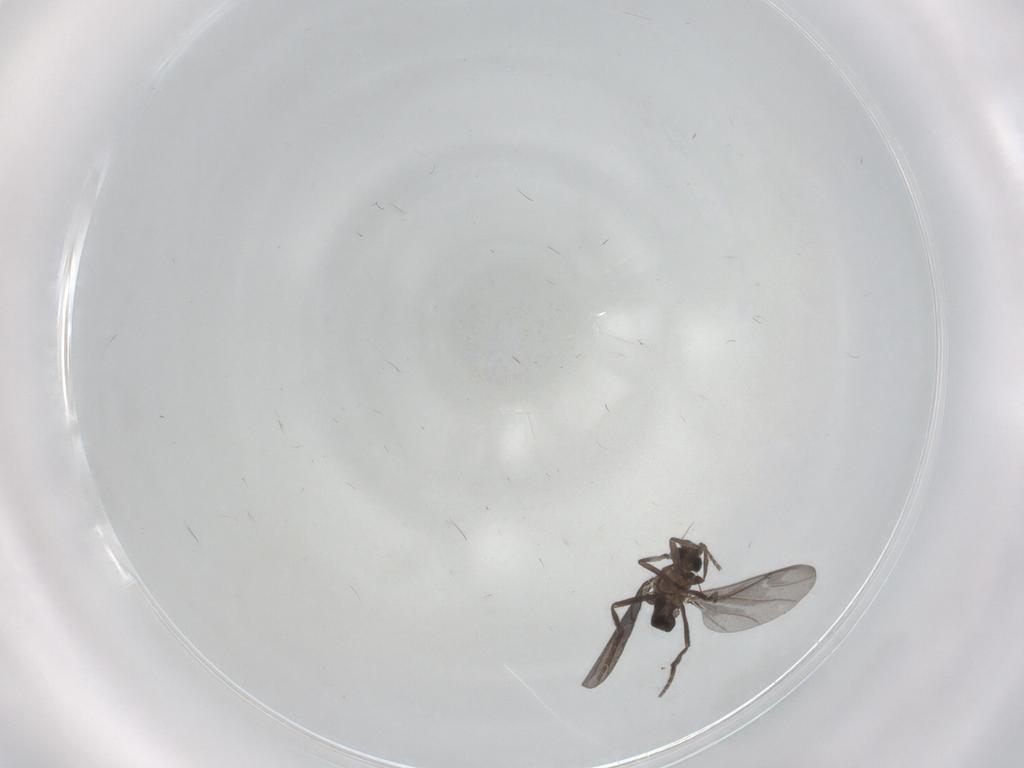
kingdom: Animalia
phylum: Arthropoda
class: Insecta
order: Diptera
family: Phoridae
